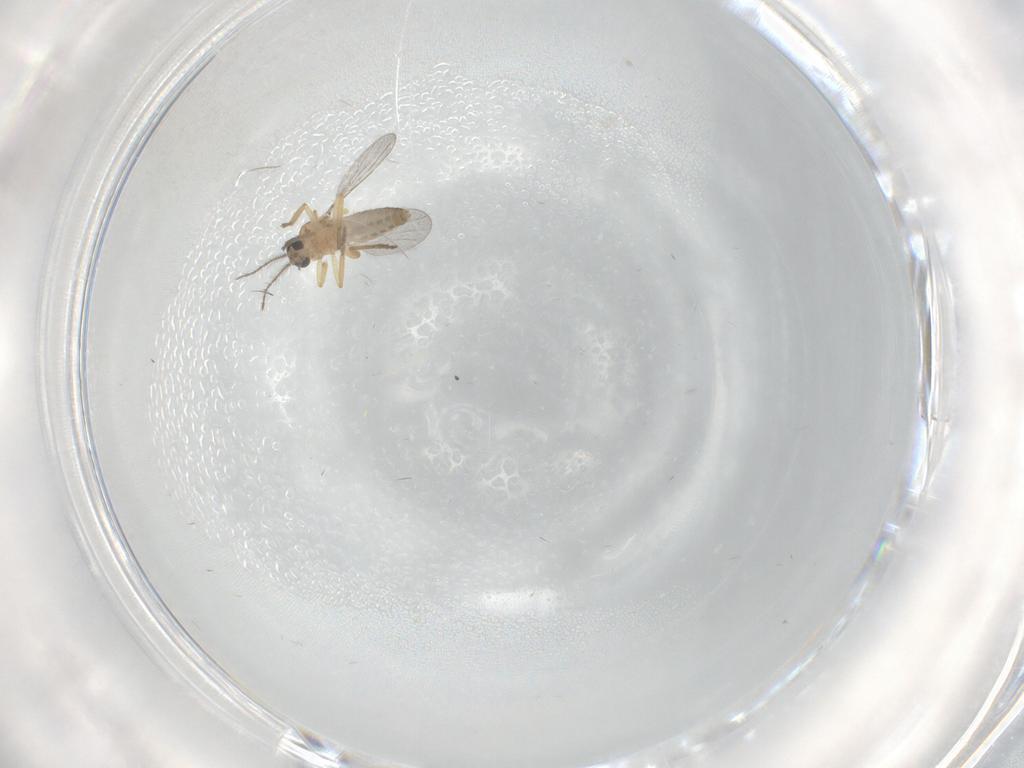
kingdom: Animalia
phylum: Arthropoda
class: Insecta
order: Diptera
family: Ceratopogonidae
